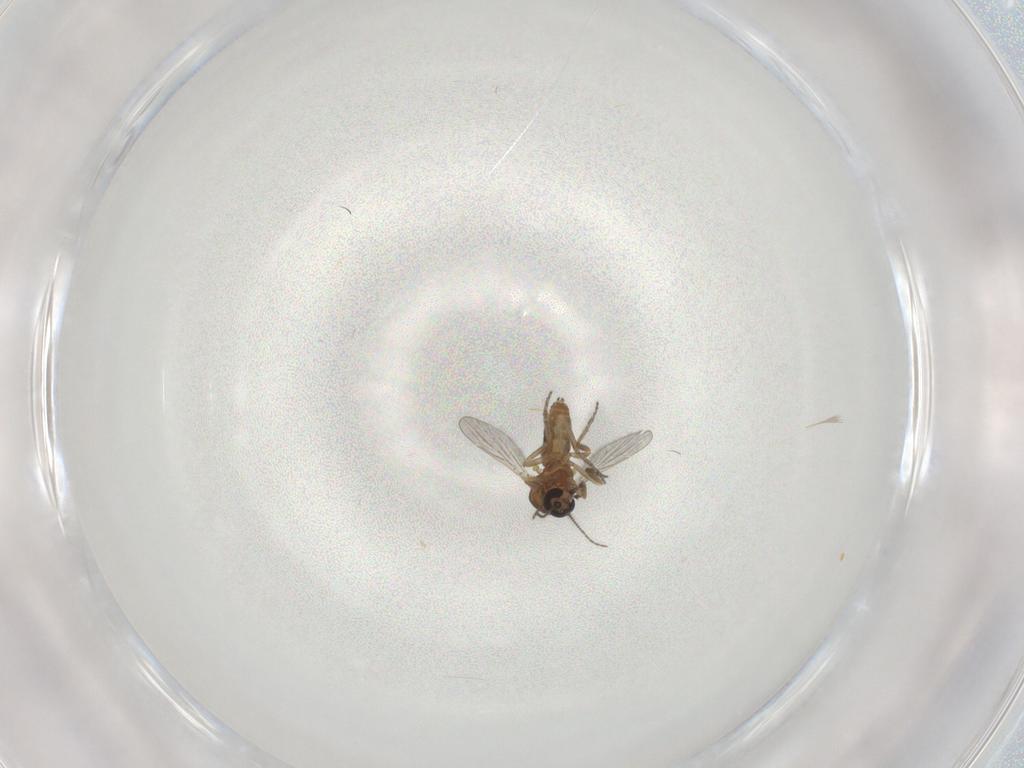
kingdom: Animalia
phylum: Arthropoda
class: Insecta
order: Diptera
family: Ceratopogonidae
